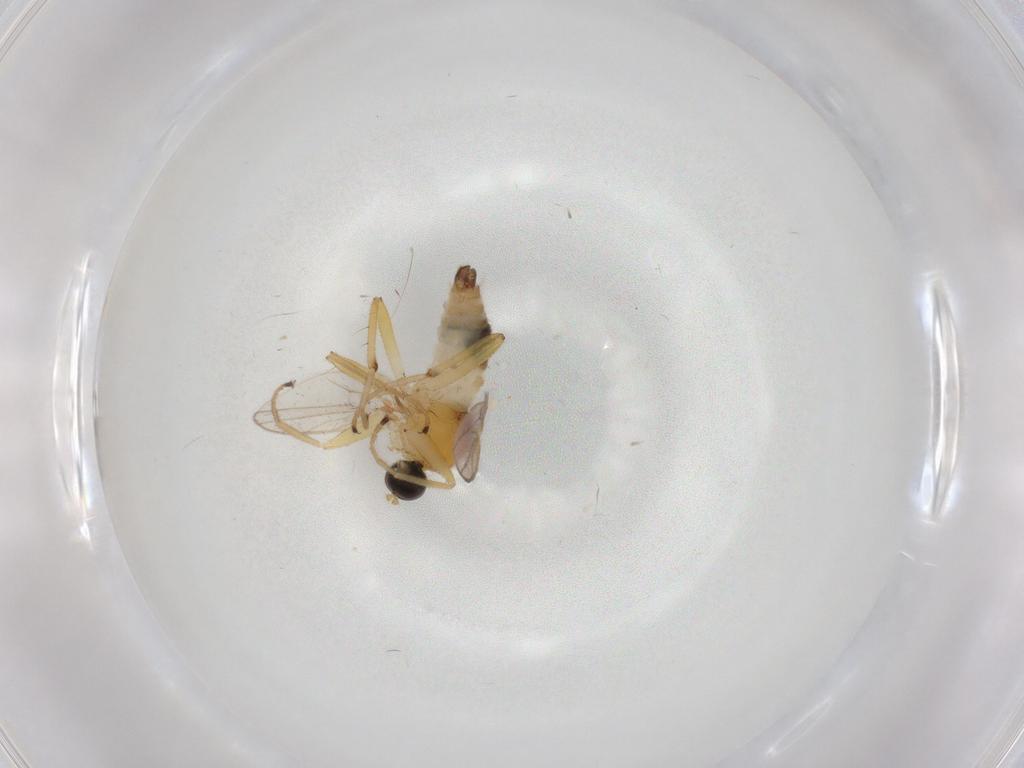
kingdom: Animalia
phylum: Arthropoda
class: Insecta
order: Diptera
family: Hybotidae
